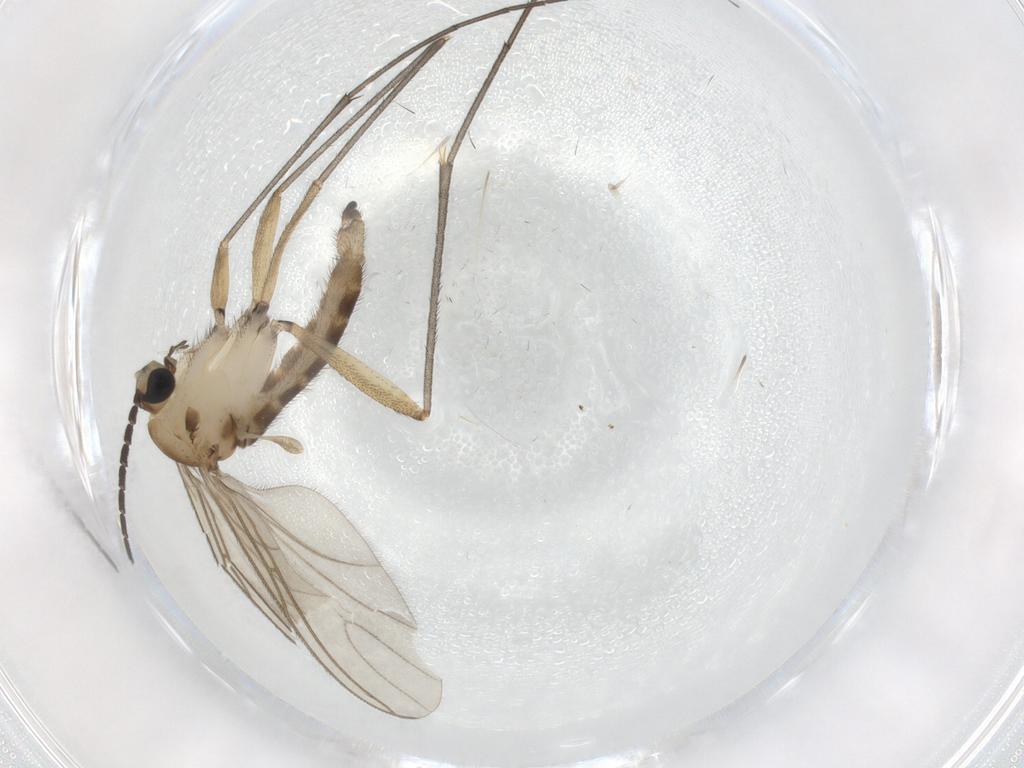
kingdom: Animalia
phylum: Arthropoda
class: Insecta
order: Diptera
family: Sciaridae
